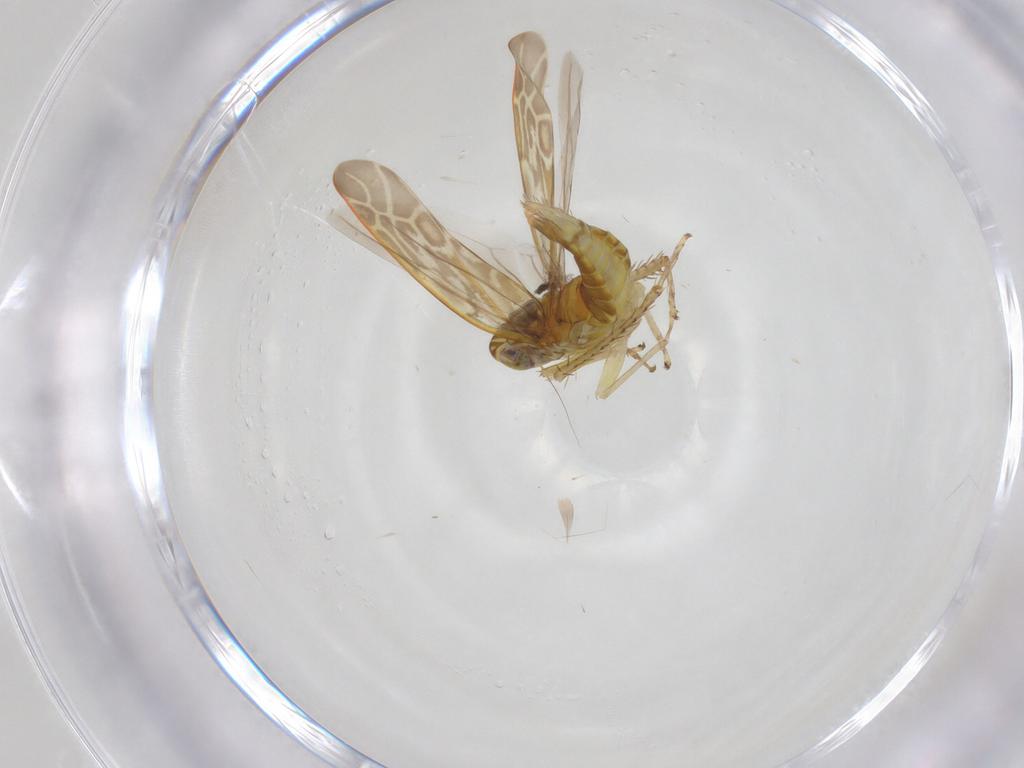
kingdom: Animalia
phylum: Arthropoda
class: Insecta
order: Hemiptera
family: Cicadellidae
